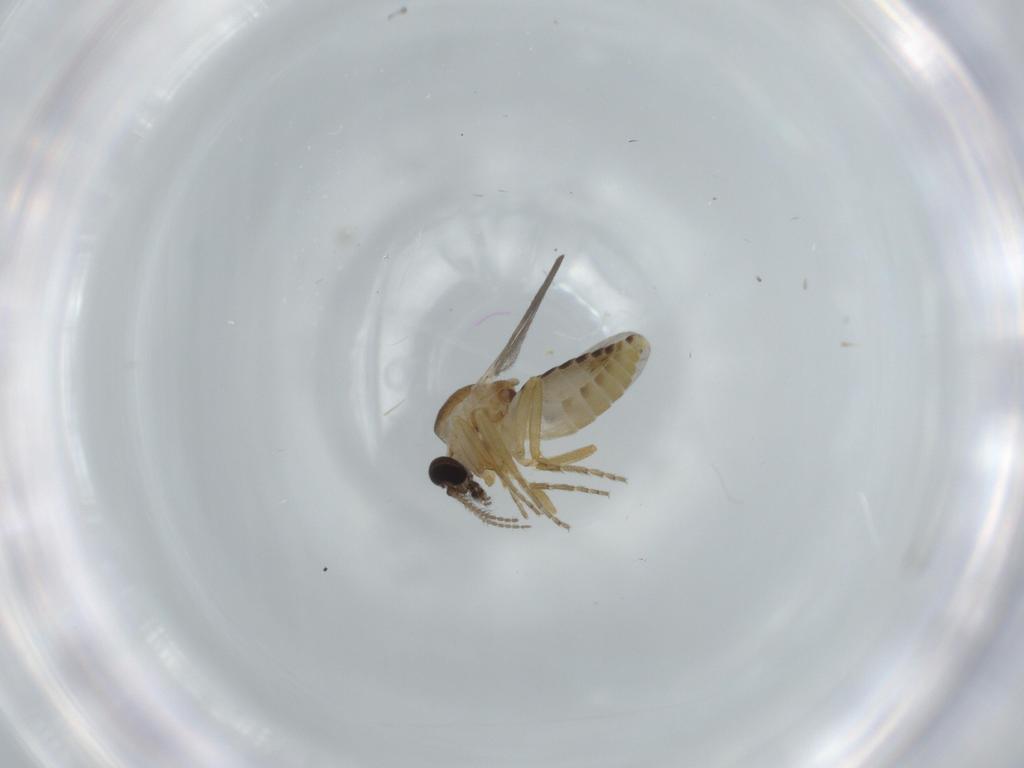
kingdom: Animalia
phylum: Arthropoda
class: Insecta
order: Diptera
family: Ceratopogonidae
